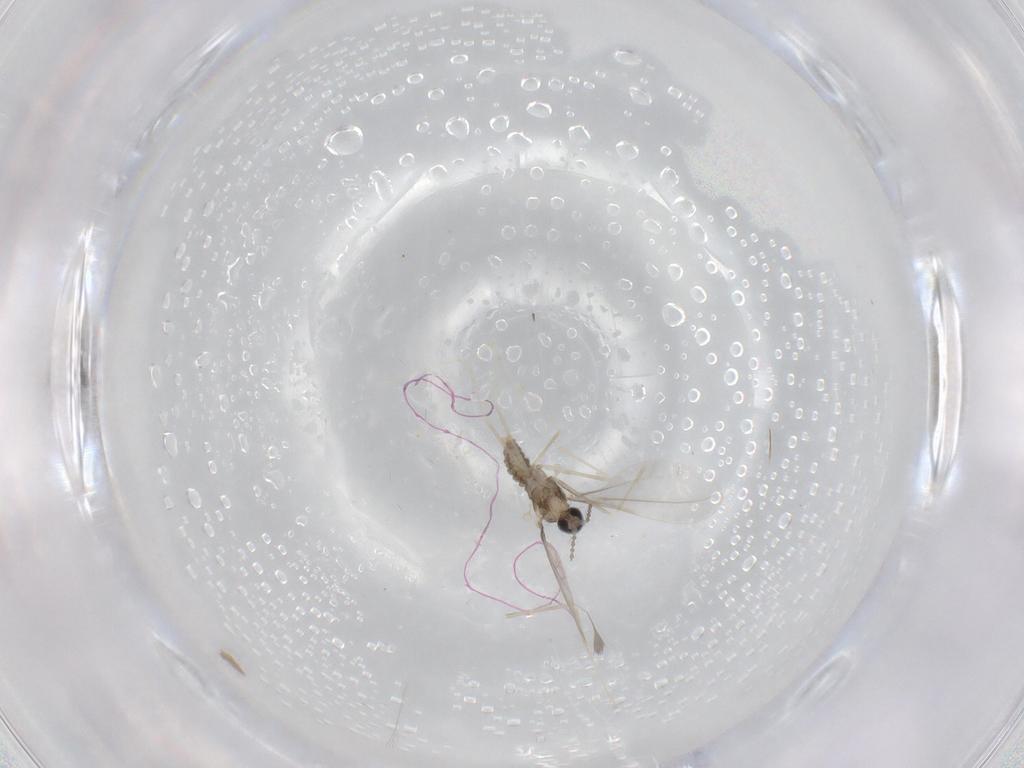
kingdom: Animalia
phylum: Arthropoda
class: Insecta
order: Diptera
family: Cecidomyiidae
